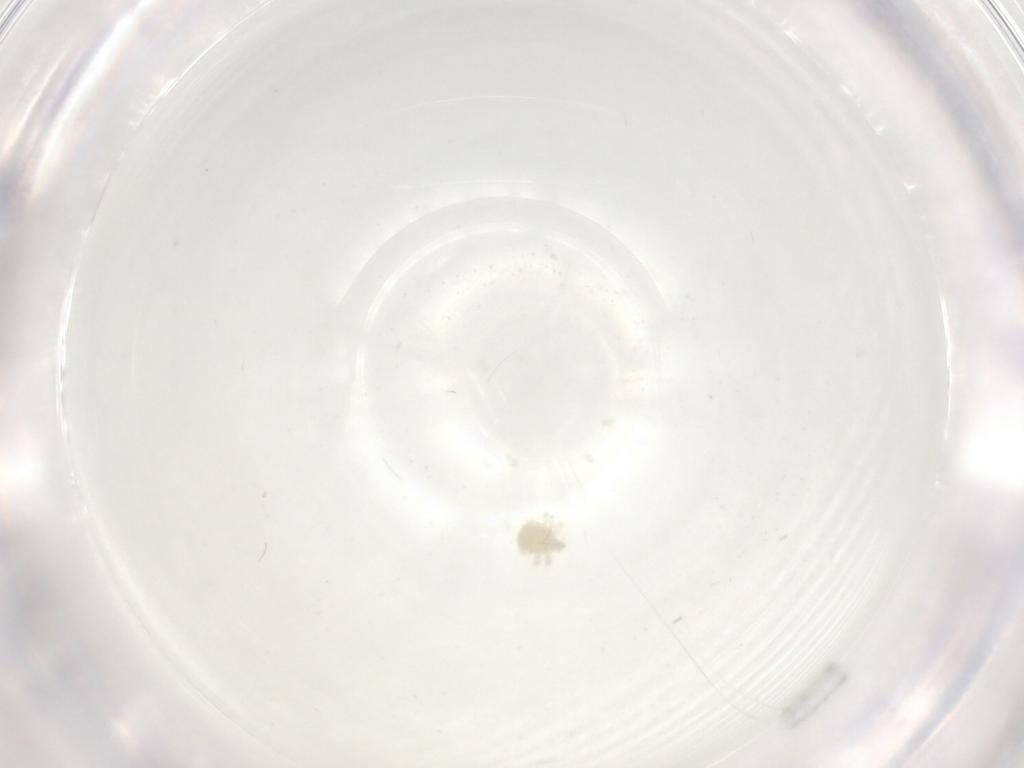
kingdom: Animalia
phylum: Arthropoda
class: Arachnida
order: Trombidiformes
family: Anystidae
